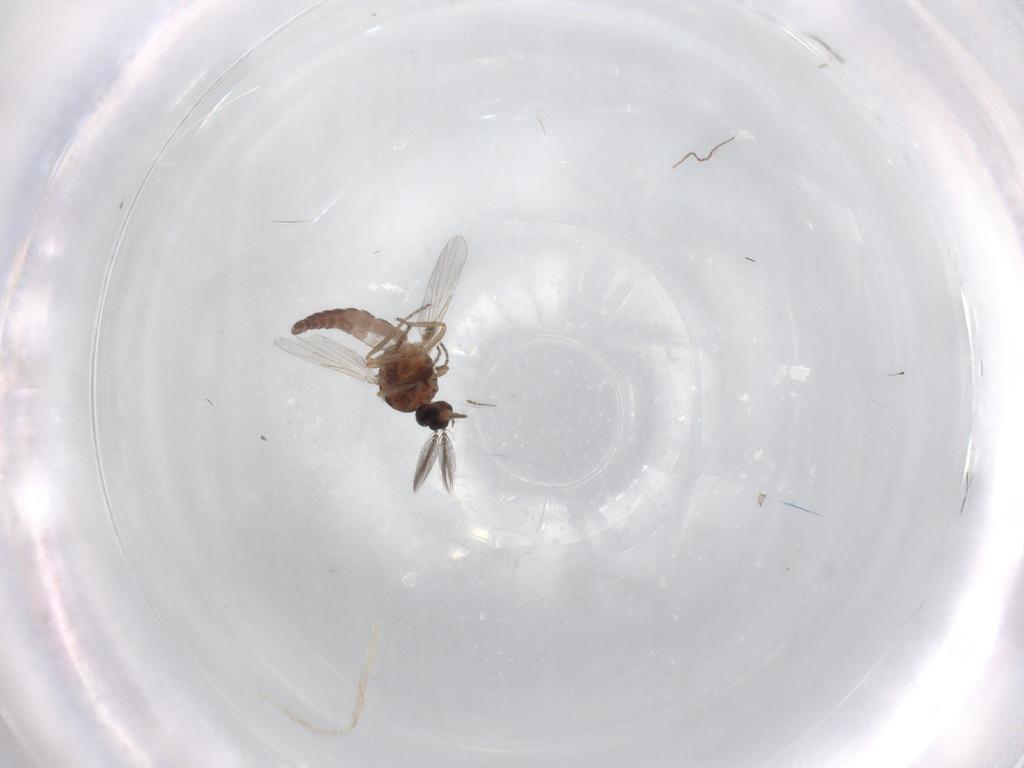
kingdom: Animalia
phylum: Arthropoda
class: Insecta
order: Diptera
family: Ceratopogonidae
